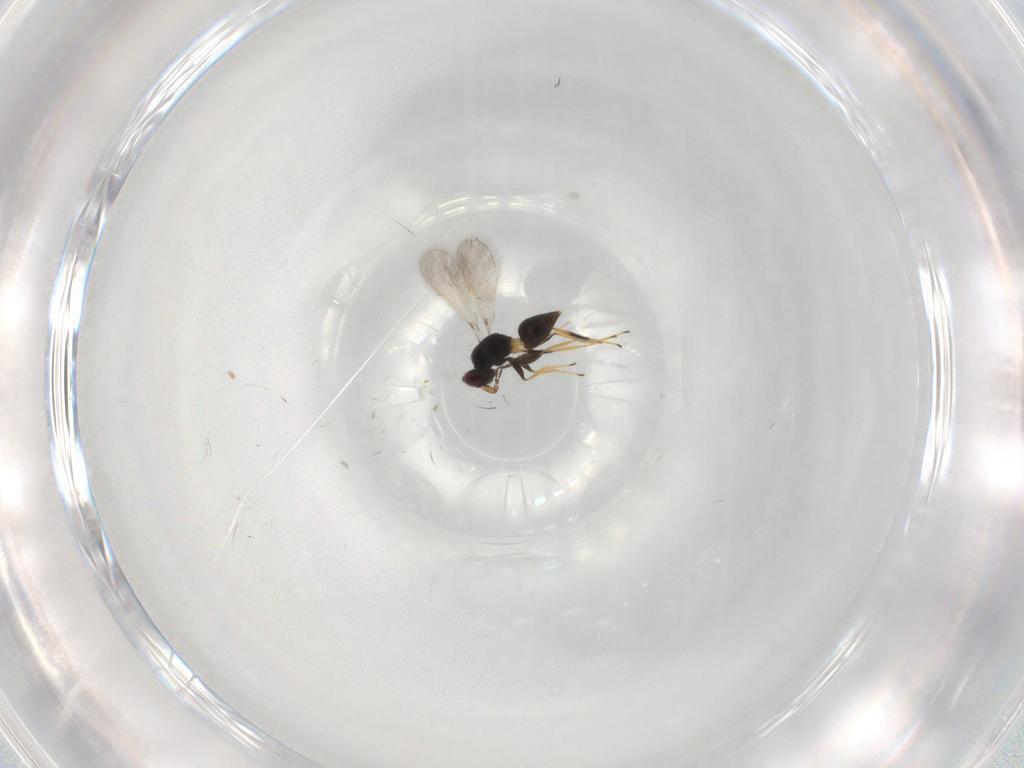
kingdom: Animalia
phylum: Arthropoda
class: Insecta
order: Hymenoptera
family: Mymaridae
